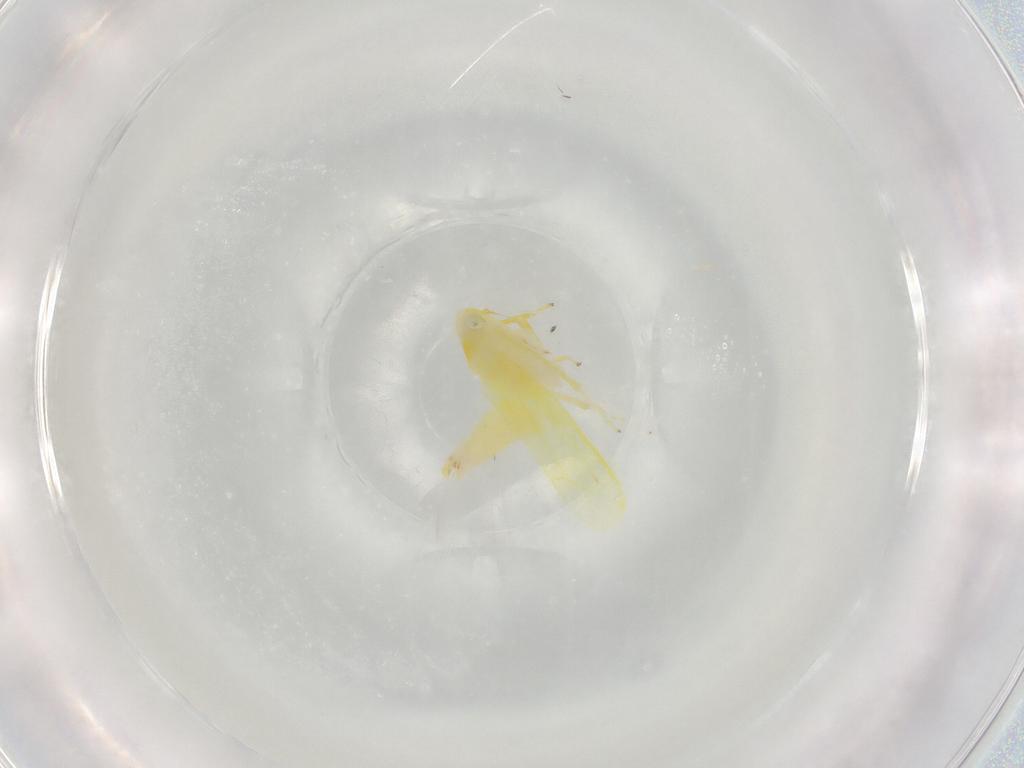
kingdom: Animalia
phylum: Arthropoda
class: Insecta
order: Hemiptera
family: Cicadellidae
